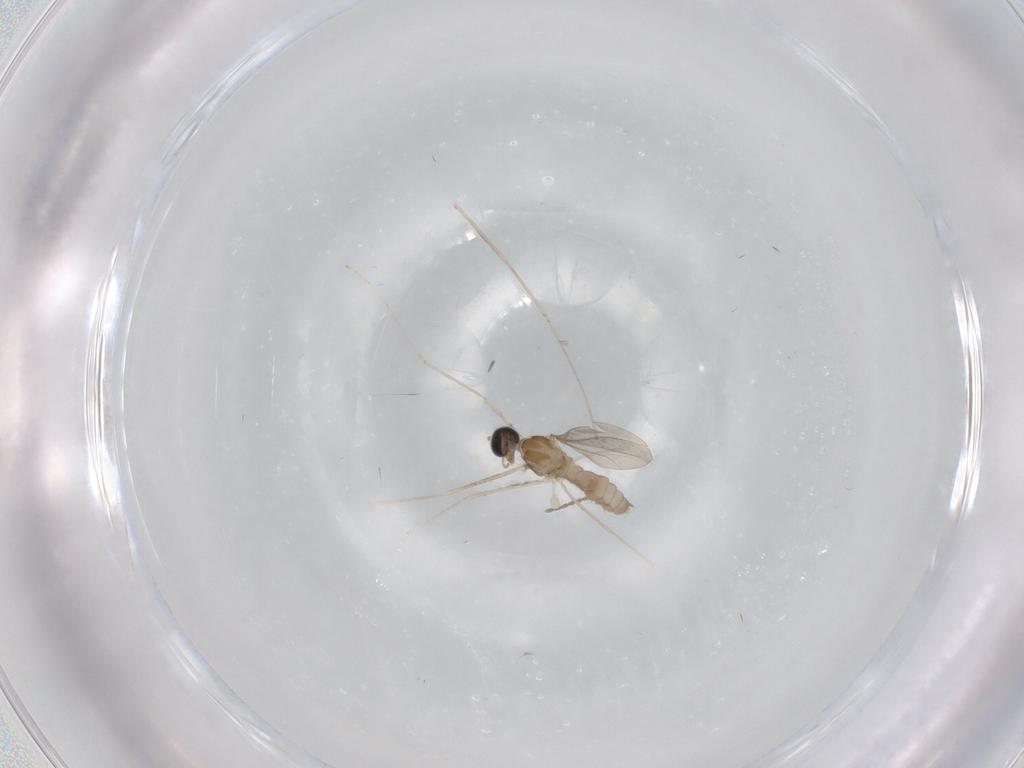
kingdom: Animalia
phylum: Arthropoda
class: Insecta
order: Diptera
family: Cecidomyiidae
